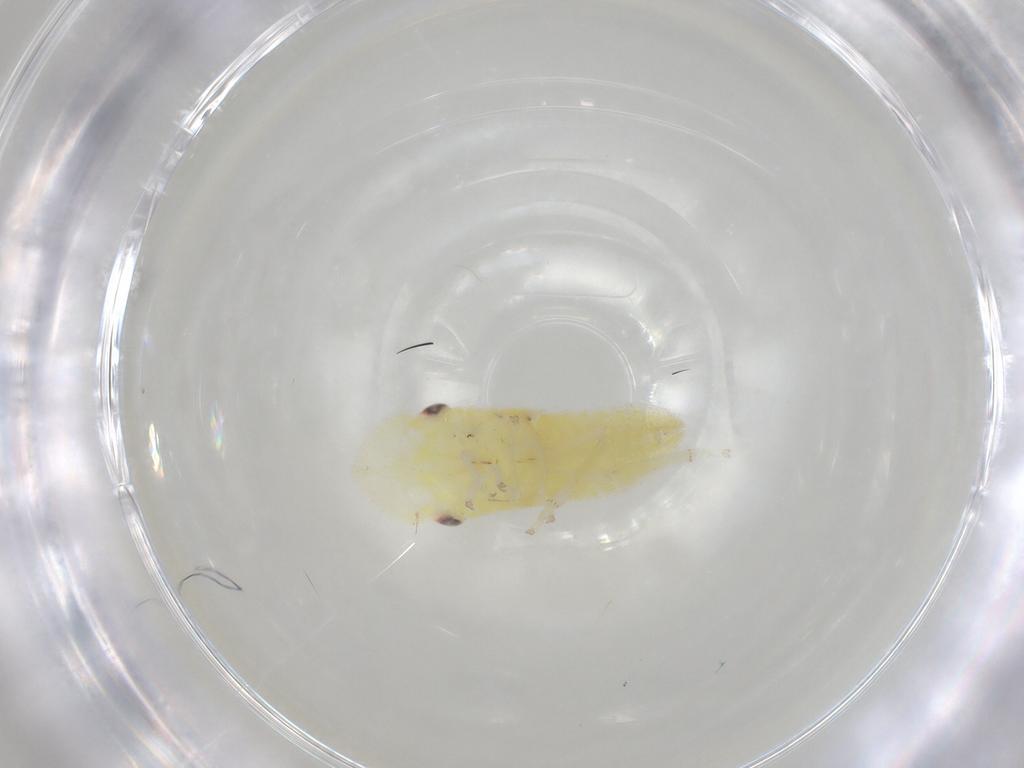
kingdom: Animalia
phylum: Arthropoda
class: Insecta
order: Hemiptera
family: Cicadellidae
